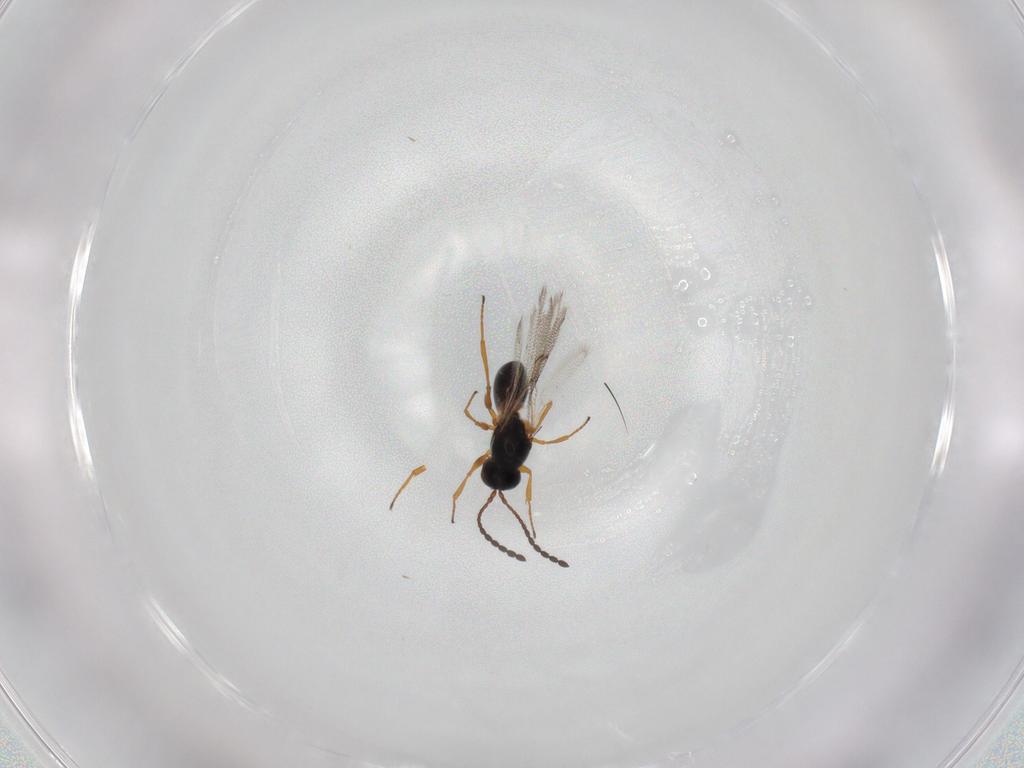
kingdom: Animalia
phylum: Arthropoda
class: Insecta
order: Hymenoptera
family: Figitidae
